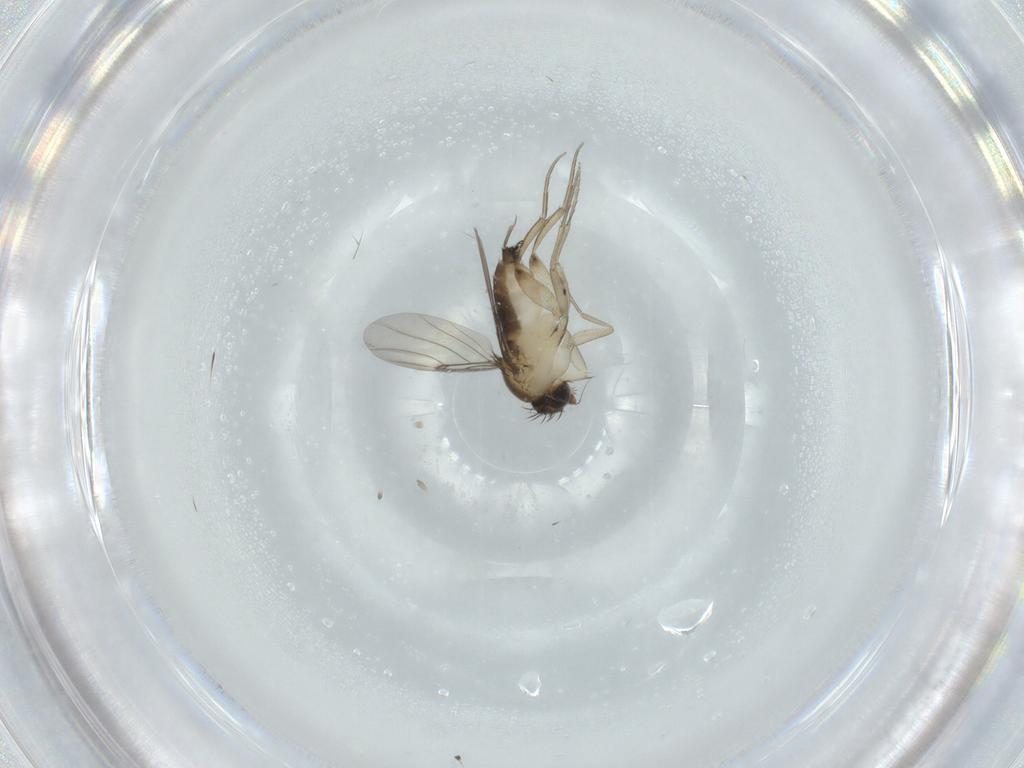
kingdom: Animalia
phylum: Arthropoda
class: Insecta
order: Diptera
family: Phoridae
